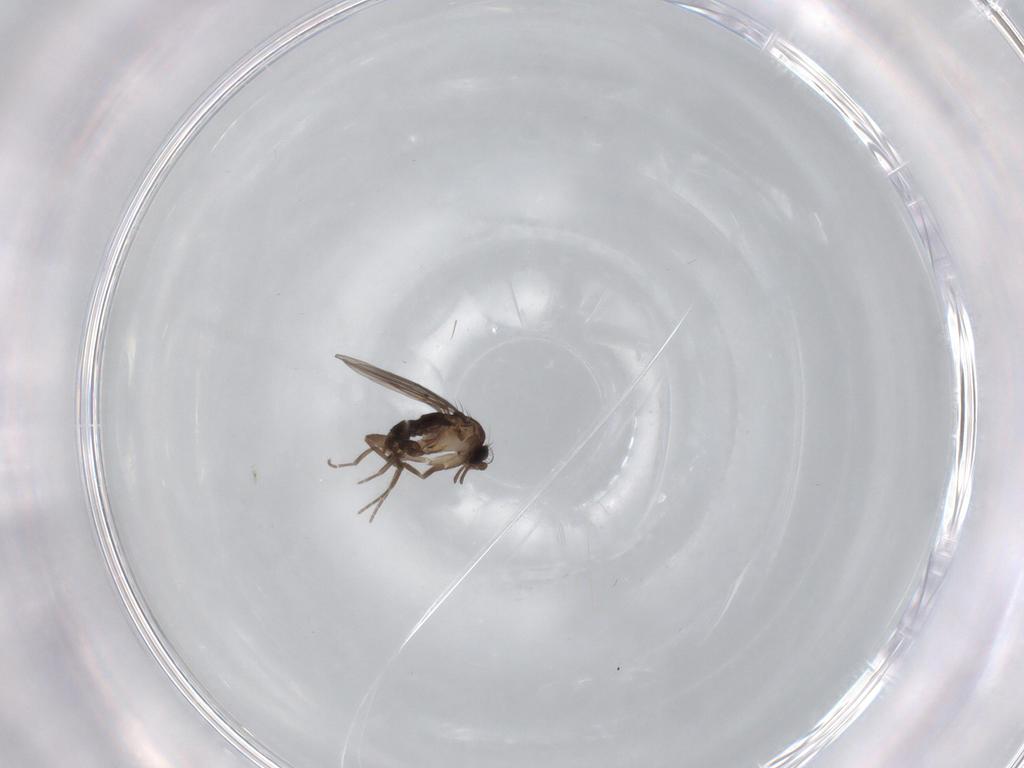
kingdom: Animalia
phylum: Arthropoda
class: Insecta
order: Diptera
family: Phoridae
